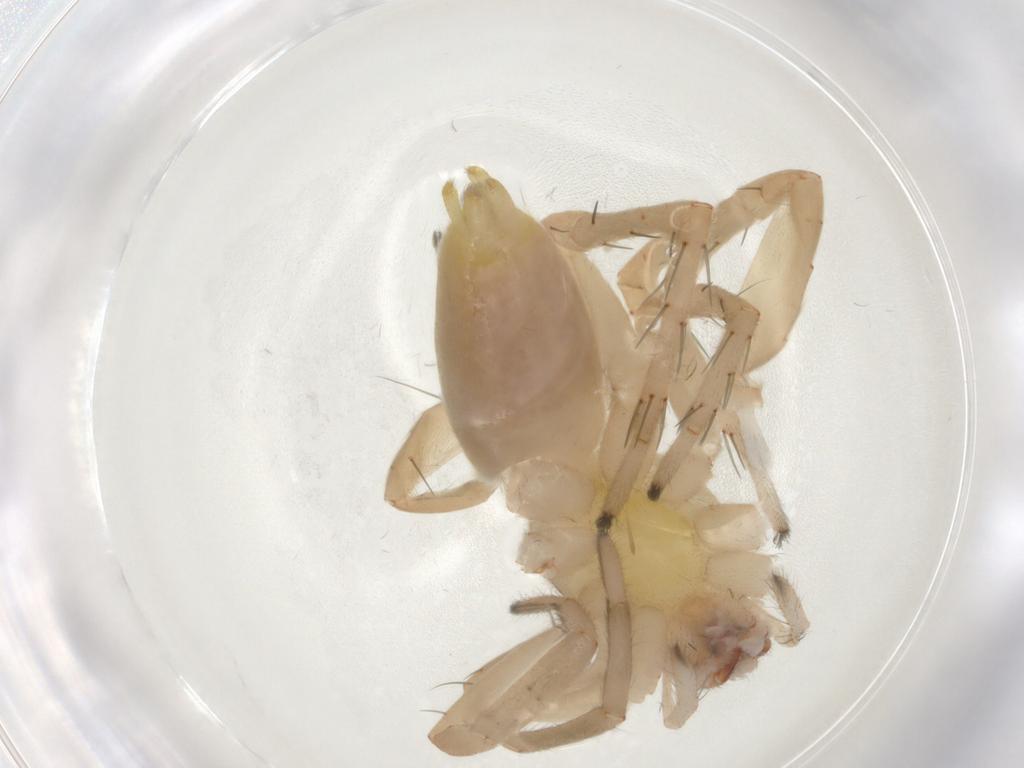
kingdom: Animalia
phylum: Arthropoda
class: Arachnida
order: Araneae
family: Clubionidae
